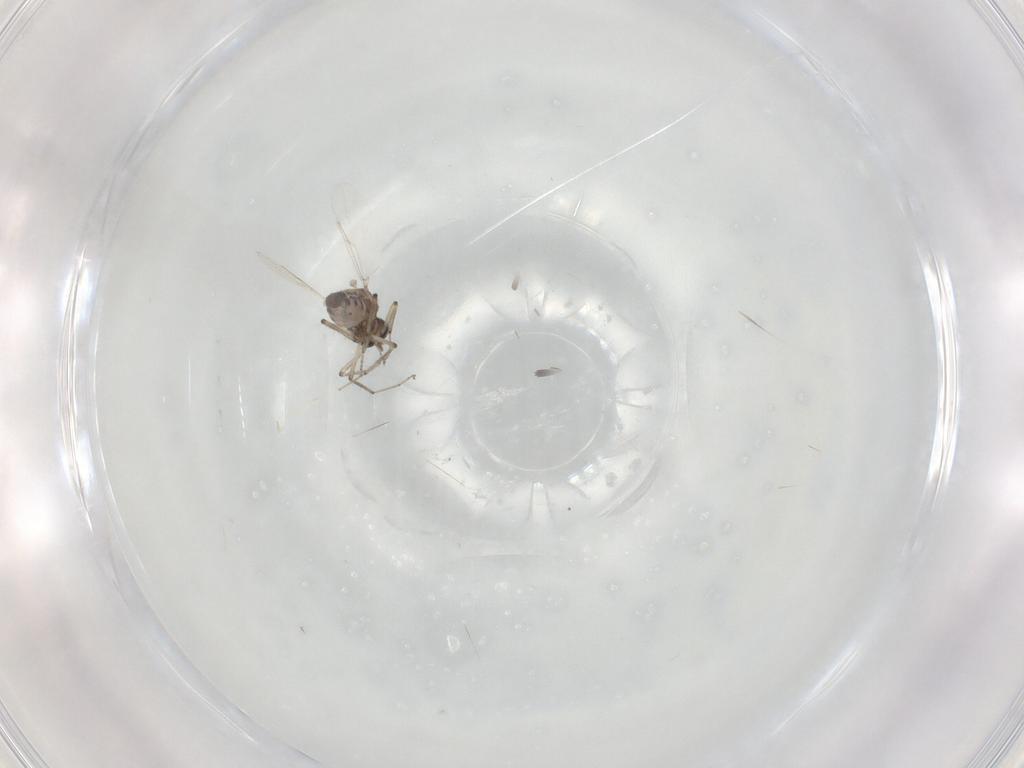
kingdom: Animalia
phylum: Arthropoda
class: Insecta
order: Diptera
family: Ceratopogonidae
